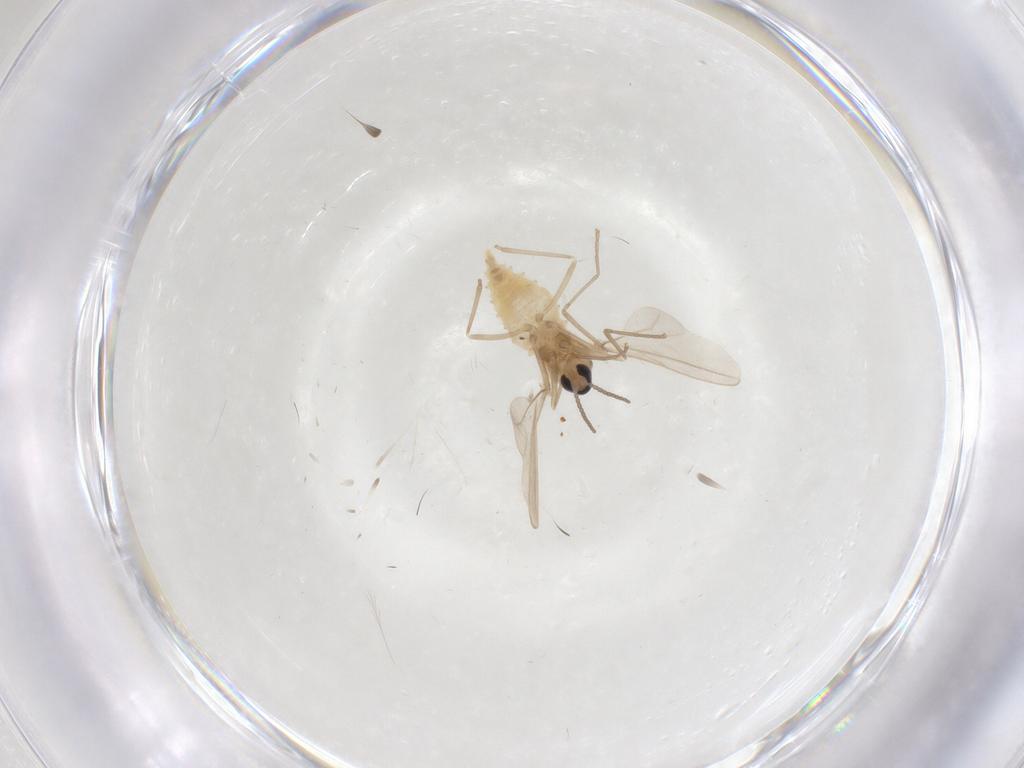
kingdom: Animalia
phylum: Arthropoda
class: Insecta
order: Diptera
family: Cecidomyiidae
